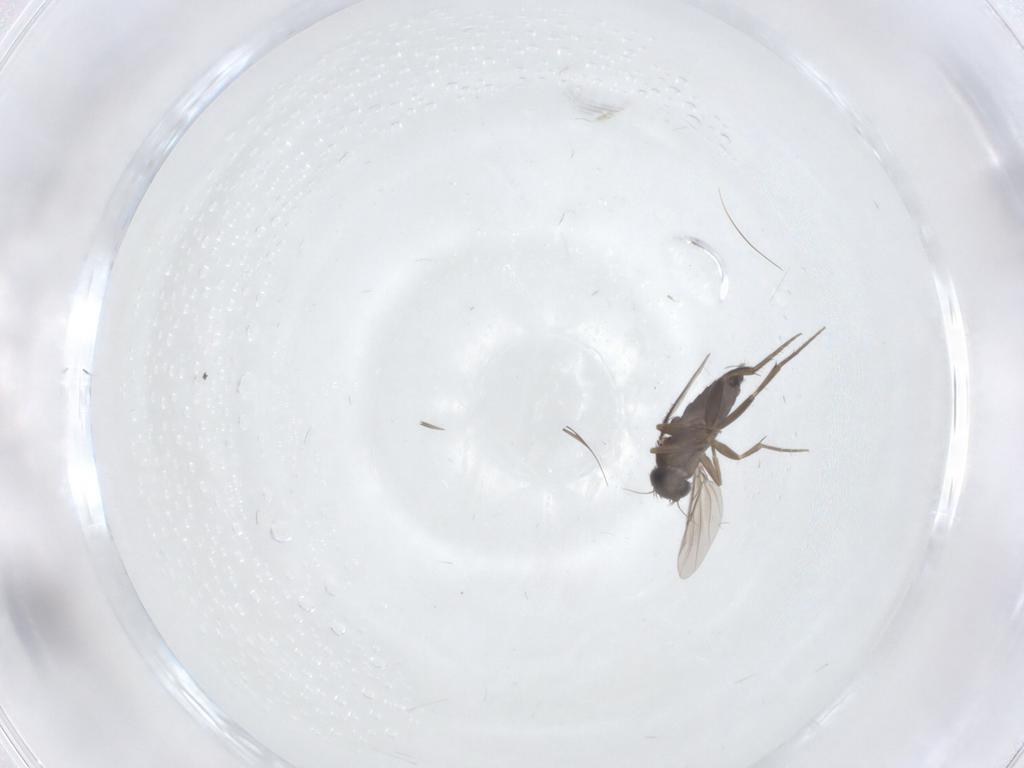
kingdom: Animalia
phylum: Arthropoda
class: Insecta
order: Diptera
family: Phoridae
